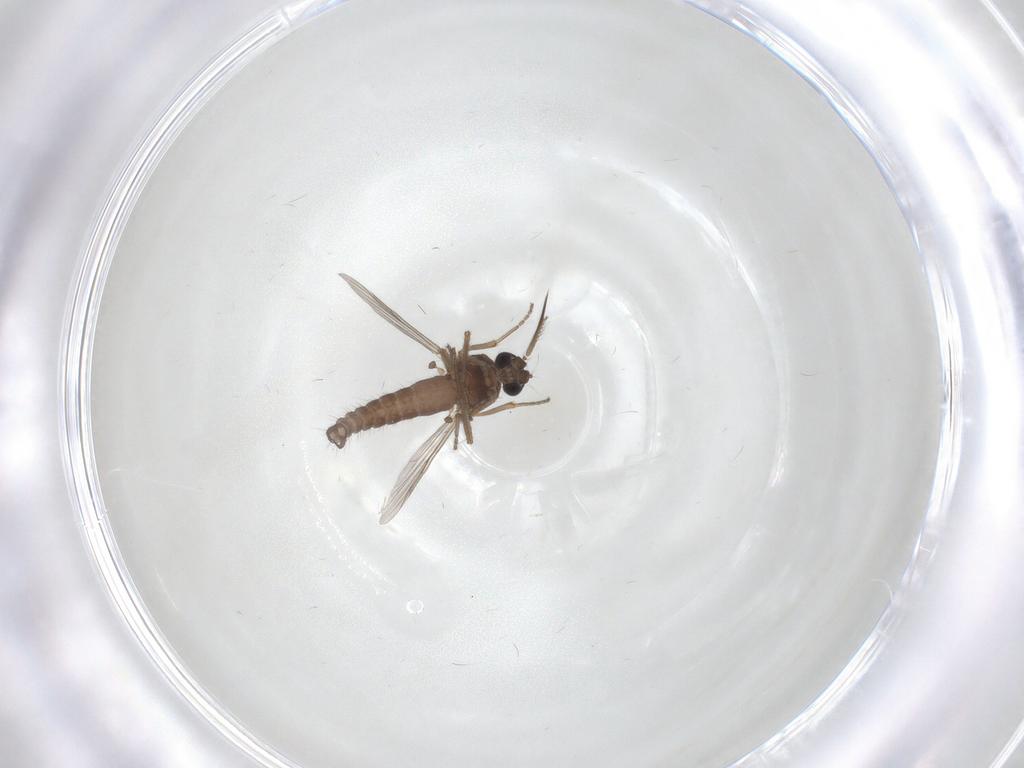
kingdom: Animalia
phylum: Arthropoda
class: Insecta
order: Diptera
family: Ceratopogonidae
